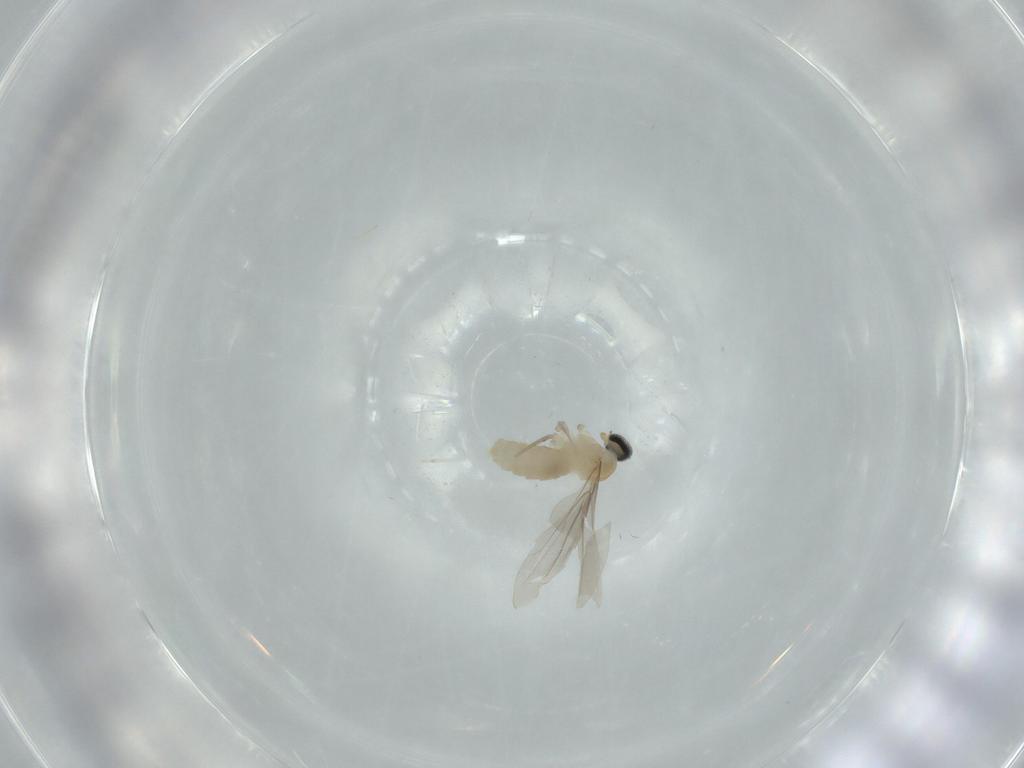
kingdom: Animalia
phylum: Arthropoda
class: Insecta
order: Diptera
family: Cecidomyiidae
